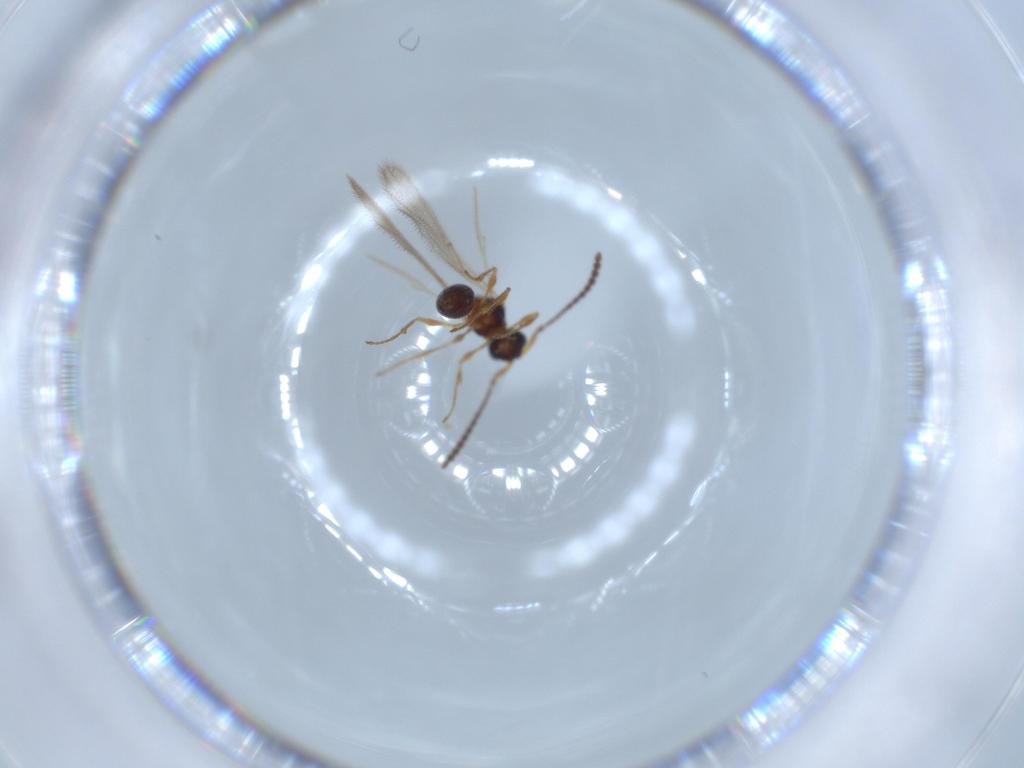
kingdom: Animalia
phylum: Arthropoda
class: Insecta
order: Hymenoptera
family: Diapriidae
